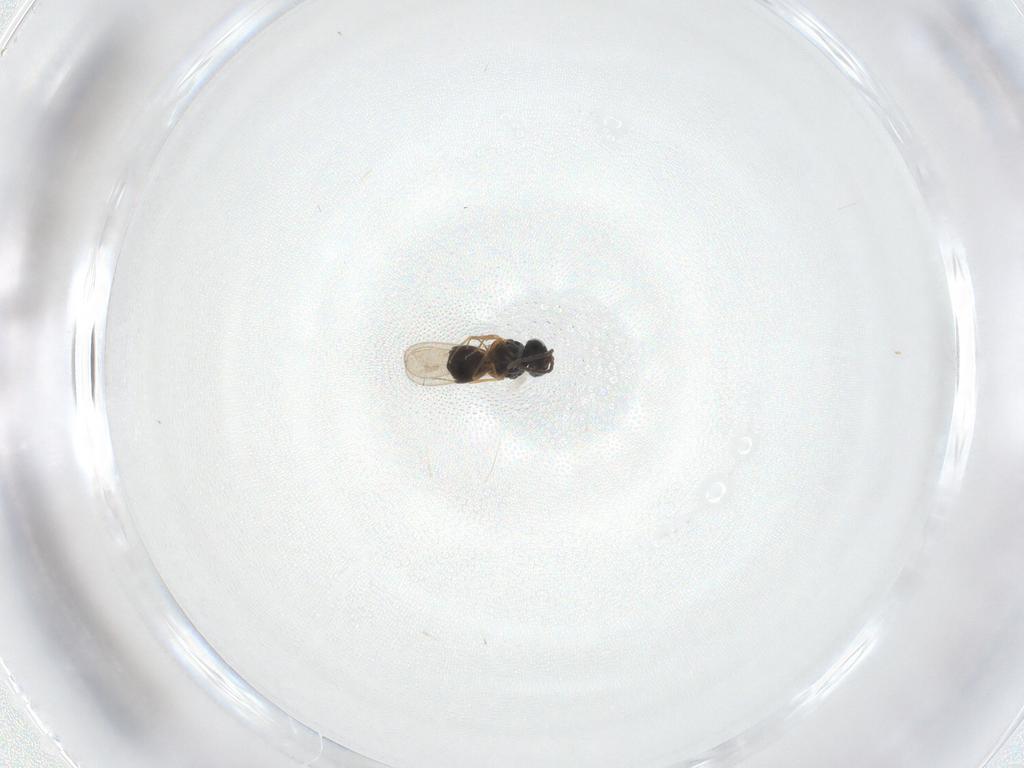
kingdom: Animalia
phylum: Arthropoda
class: Insecta
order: Hymenoptera
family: Scelionidae
